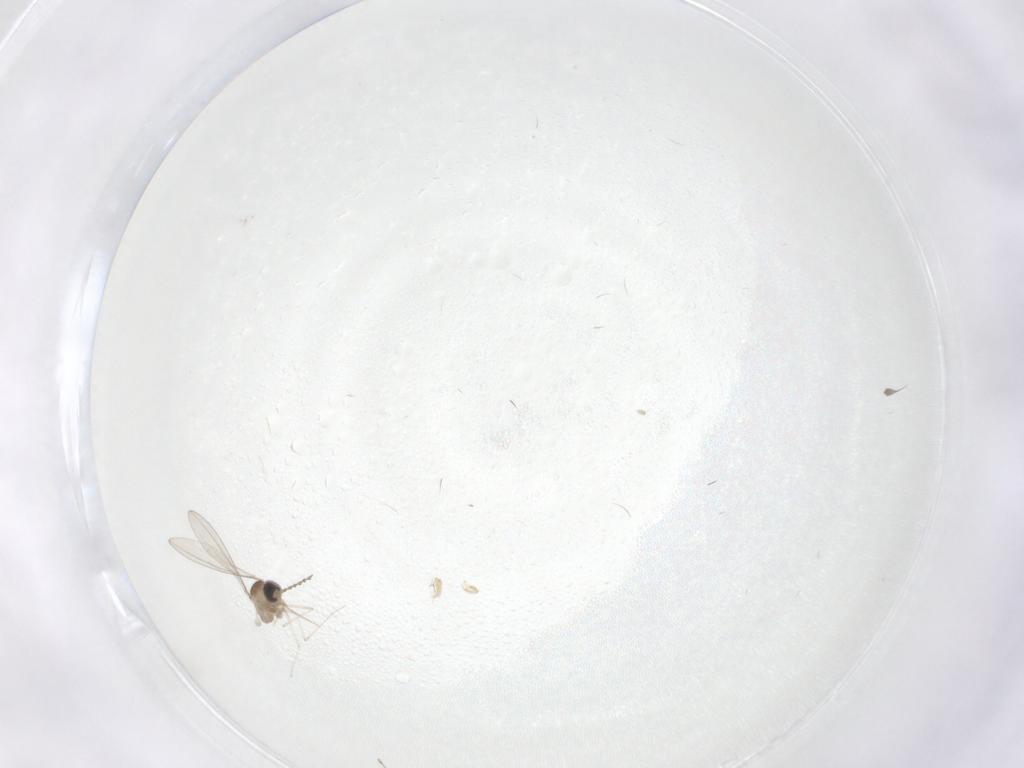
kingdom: Animalia
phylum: Arthropoda
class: Insecta
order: Diptera
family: Cecidomyiidae
